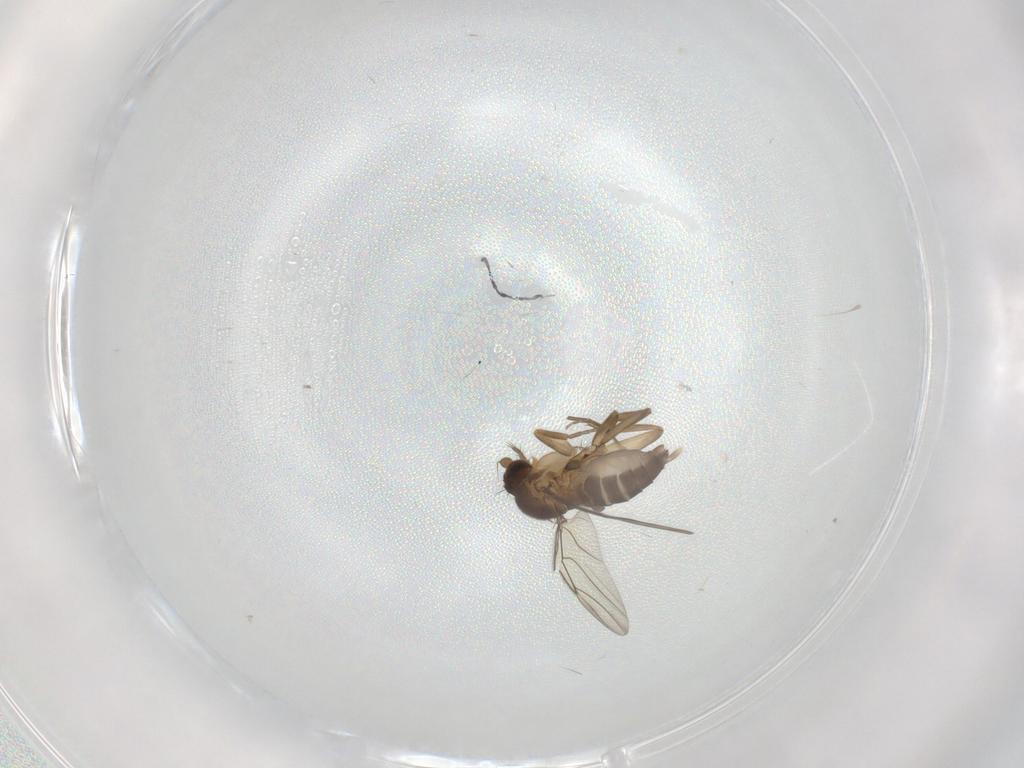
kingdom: Animalia
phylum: Arthropoda
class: Insecta
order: Diptera
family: Phoridae
